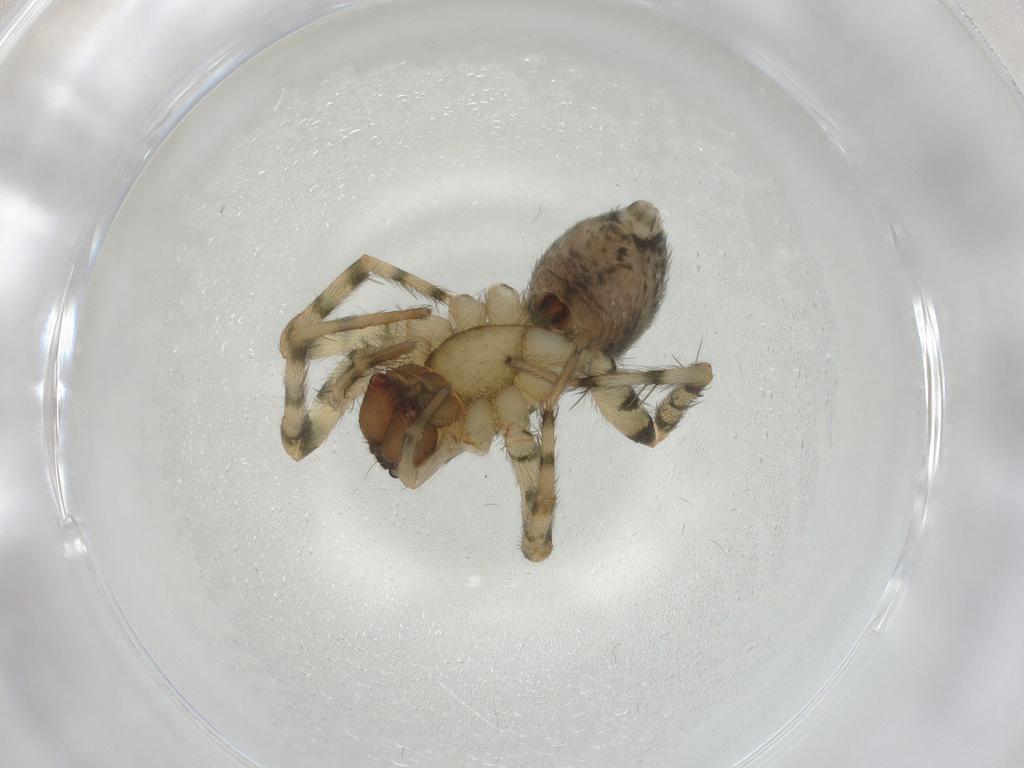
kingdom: Animalia
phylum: Arthropoda
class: Arachnida
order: Araneae
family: Amaurobiidae
